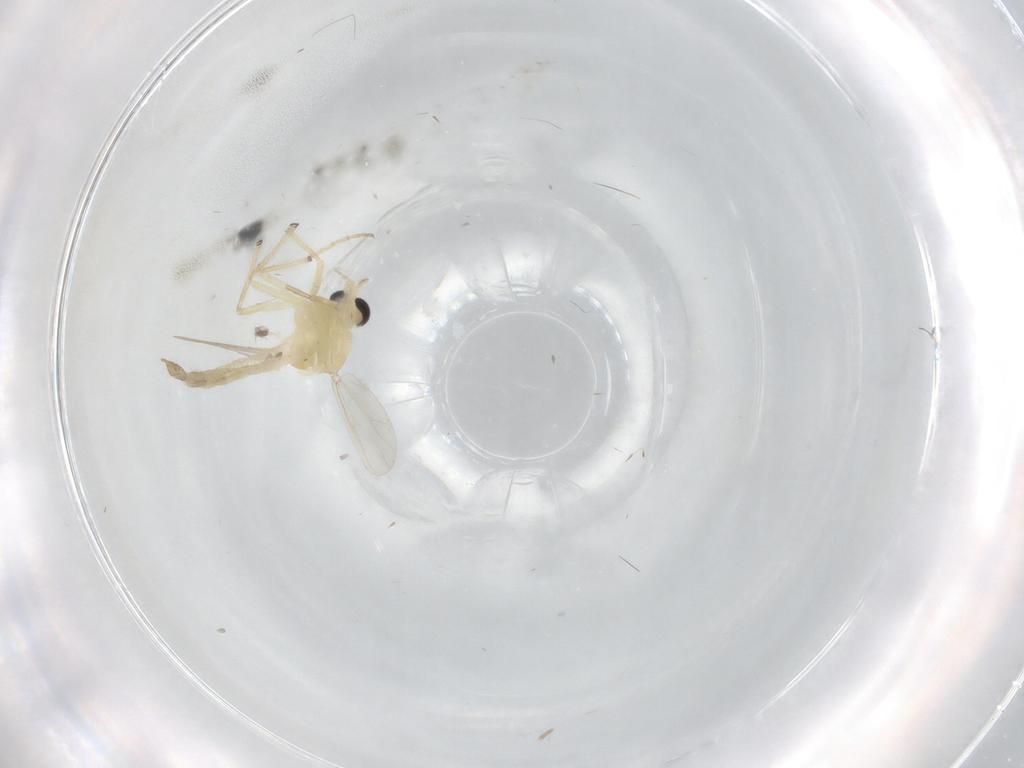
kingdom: Animalia
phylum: Arthropoda
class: Insecta
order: Diptera
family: Chironomidae
